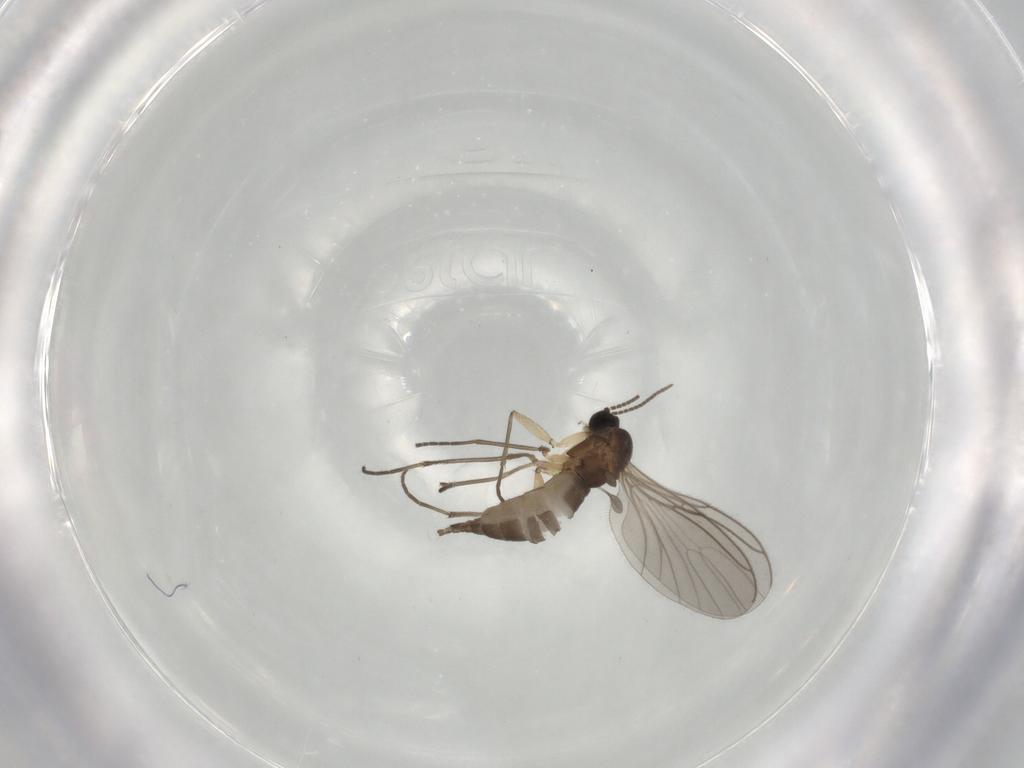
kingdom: Animalia
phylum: Arthropoda
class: Insecta
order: Diptera
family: Sciaridae
